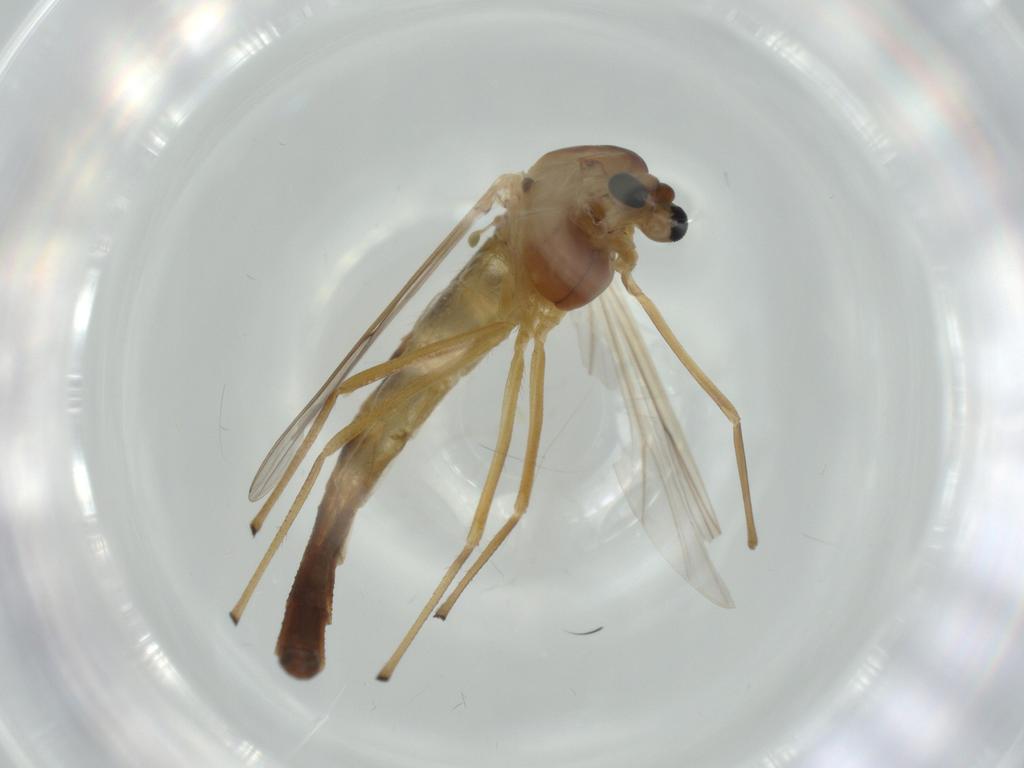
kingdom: Animalia
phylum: Arthropoda
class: Insecta
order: Diptera
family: Chironomidae
